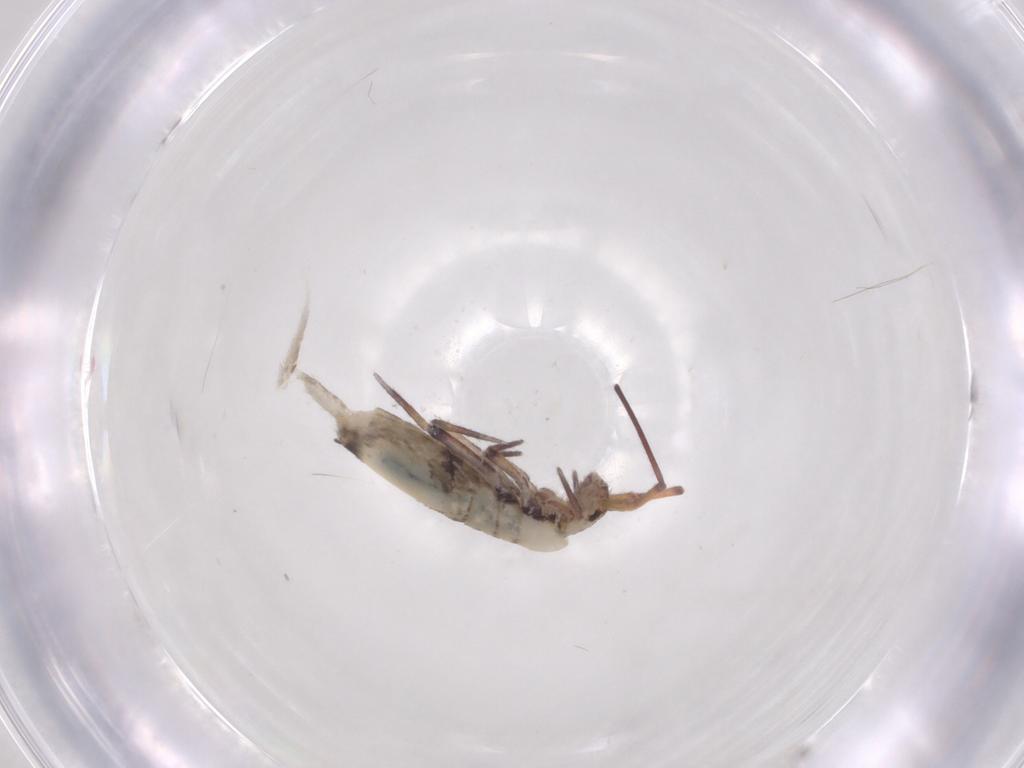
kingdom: Animalia
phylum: Arthropoda
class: Collembola
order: Entomobryomorpha
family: Entomobryidae
